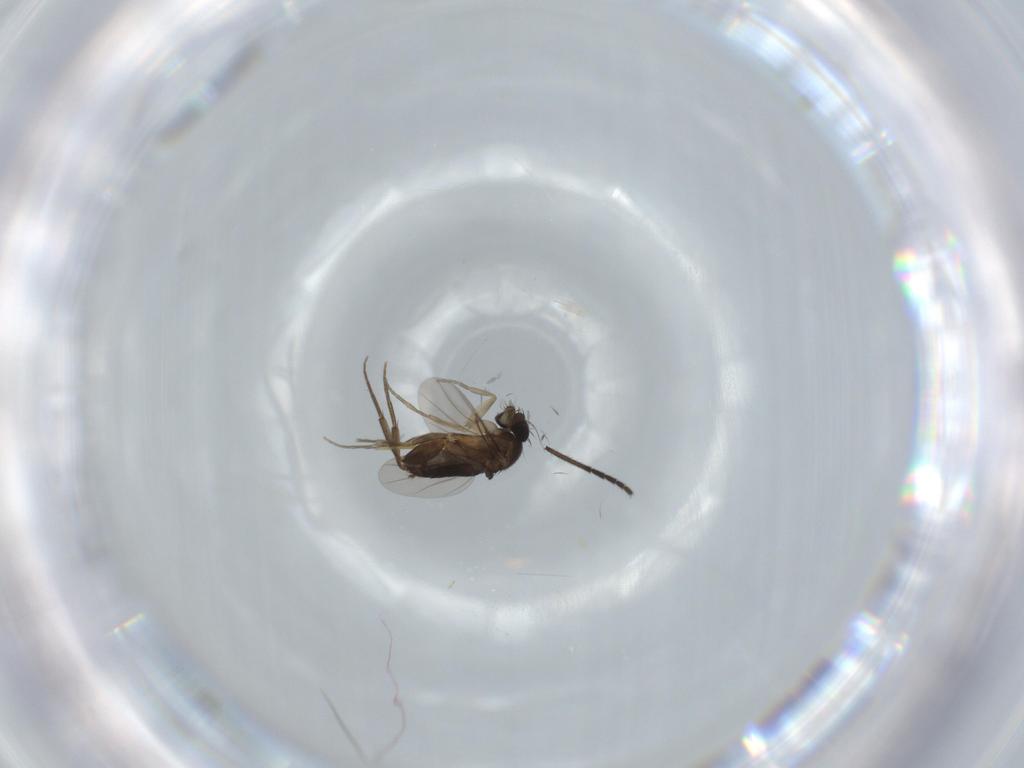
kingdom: Animalia
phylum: Arthropoda
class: Insecta
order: Diptera
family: Phoridae
